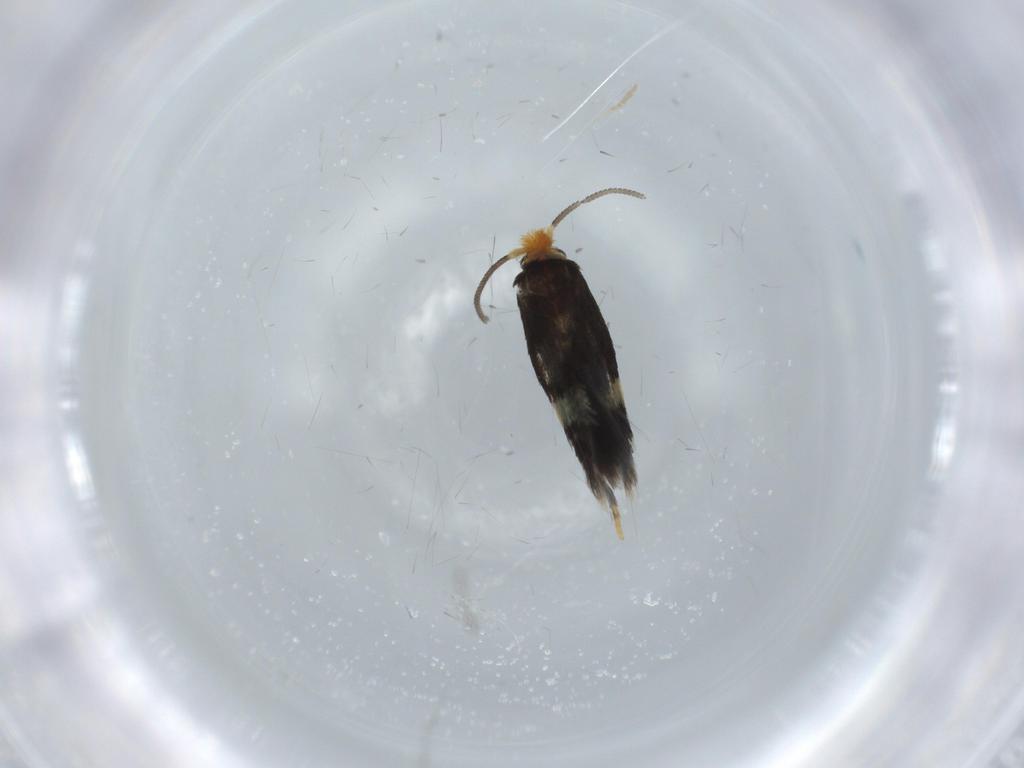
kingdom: Animalia
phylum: Arthropoda
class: Insecta
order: Lepidoptera
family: Nepticulidae
